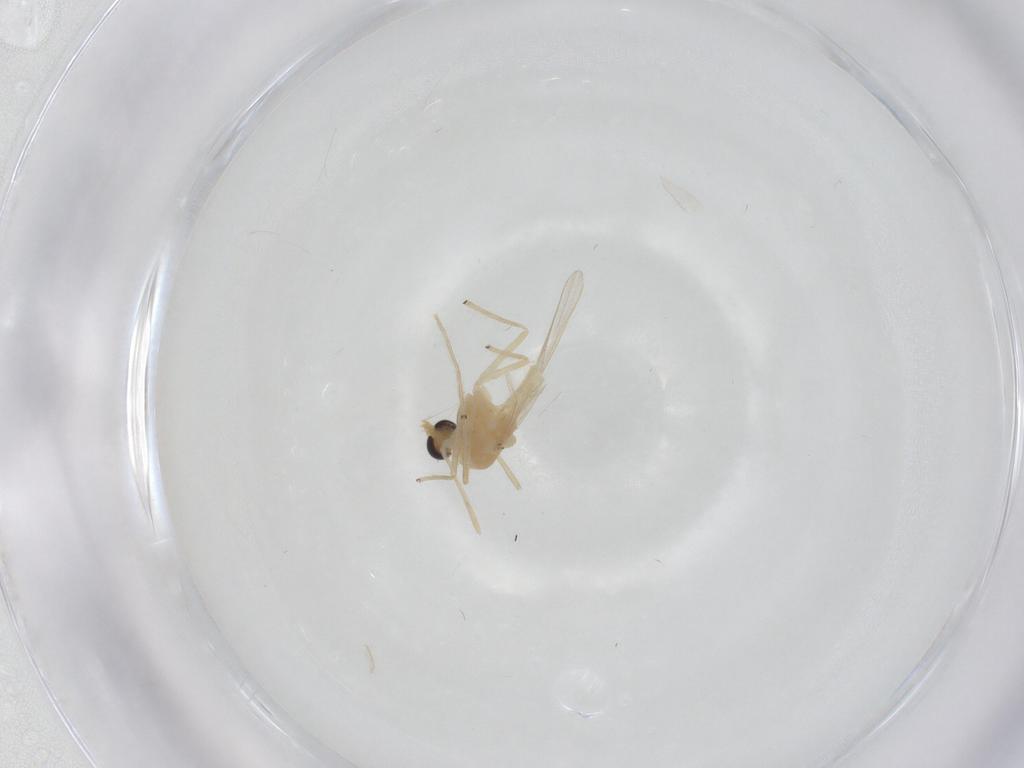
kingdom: Animalia
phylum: Arthropoda
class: Insecta
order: Diptera
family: Chironomidae
